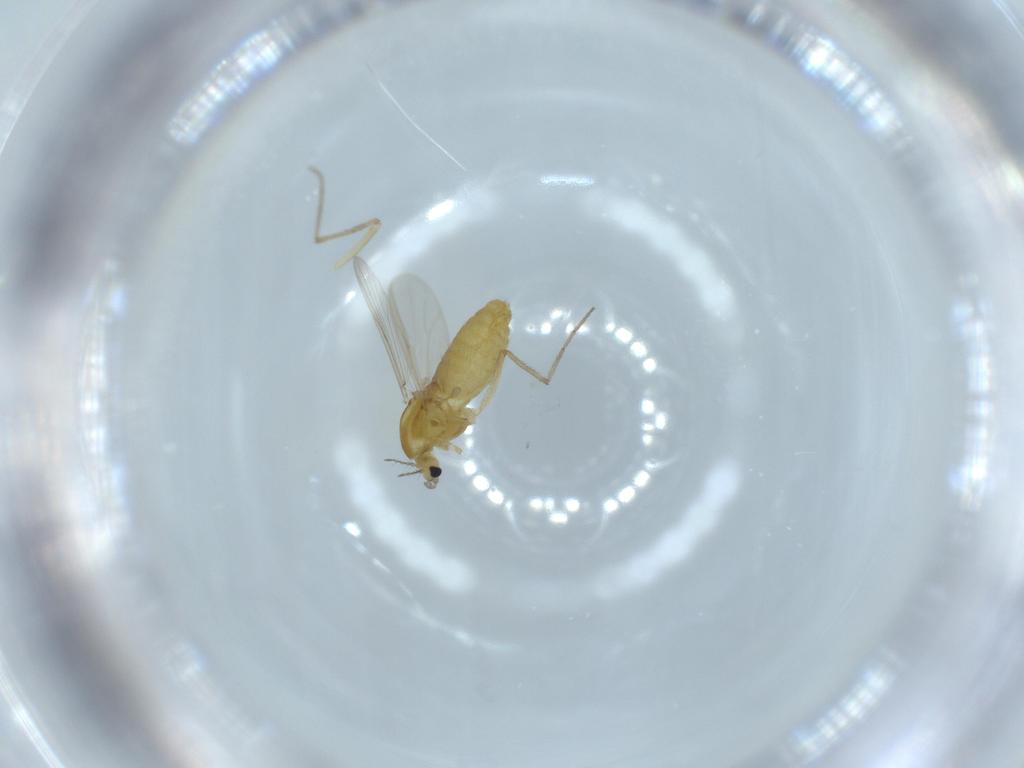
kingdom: Animalia
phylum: Arthropoda
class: Insecta
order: Diptera
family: Chironomidae
